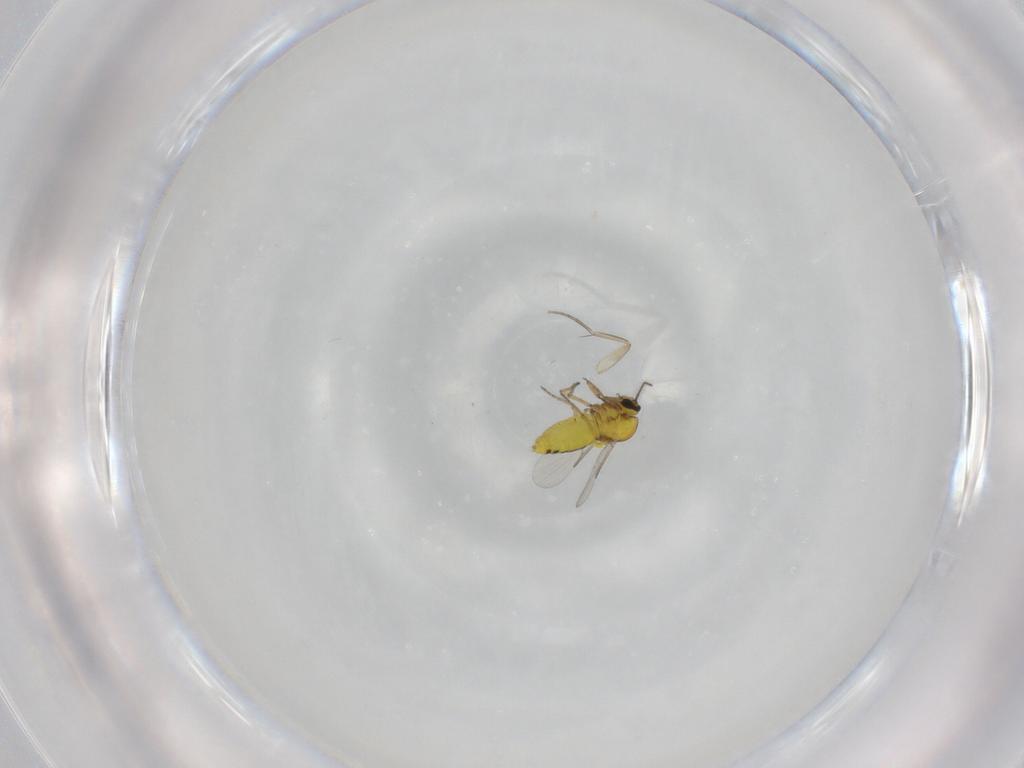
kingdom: Animalia
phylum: Arthropoda
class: Insecta
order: Diptera
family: Ceratopogonidae
